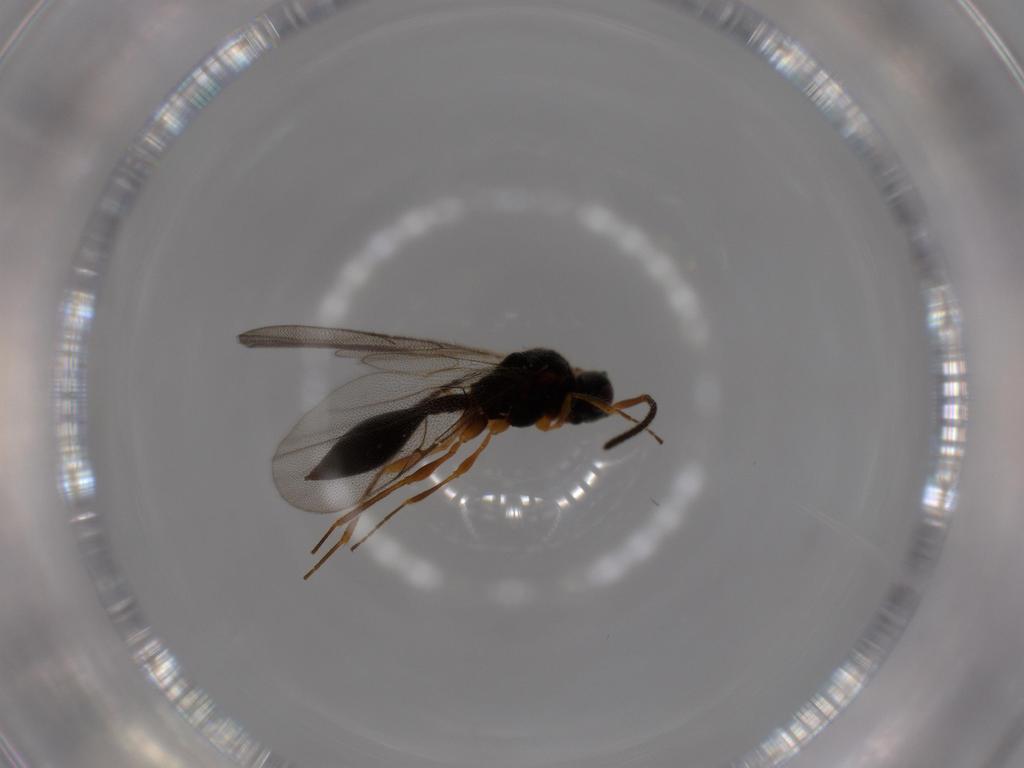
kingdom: Animalia
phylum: Arthropoda
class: Insecta
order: Hymenoptera
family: Diapriidae
